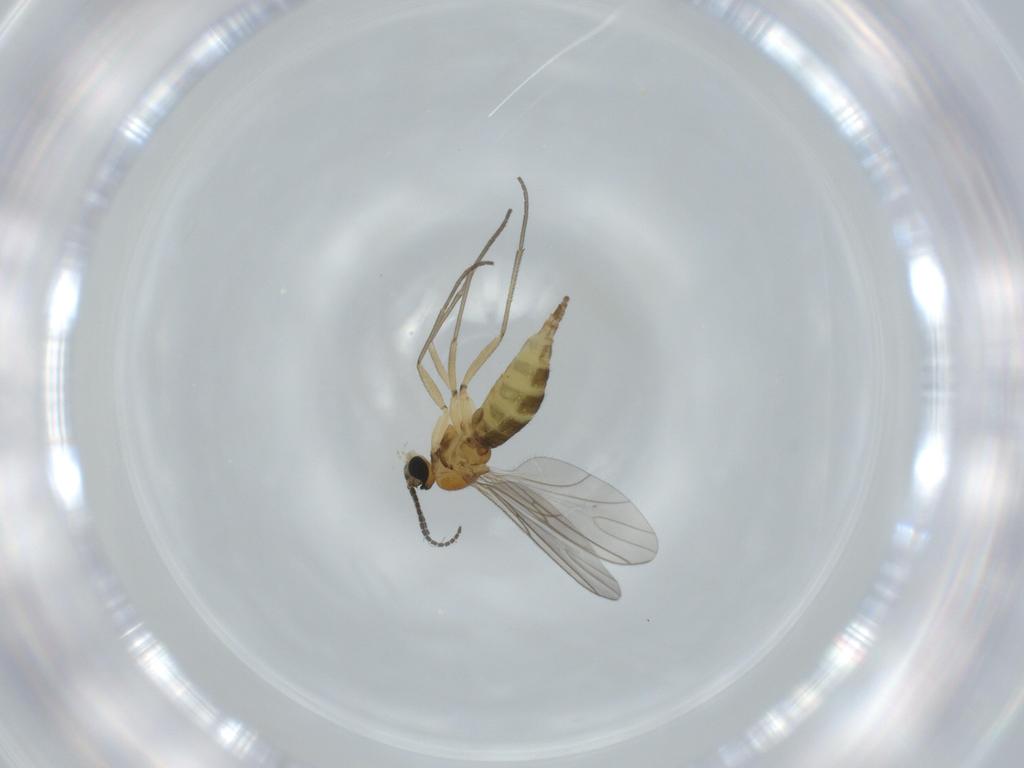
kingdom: Animalia
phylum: Arthropoda
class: Insecta
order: Diptera
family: Sciaridae
